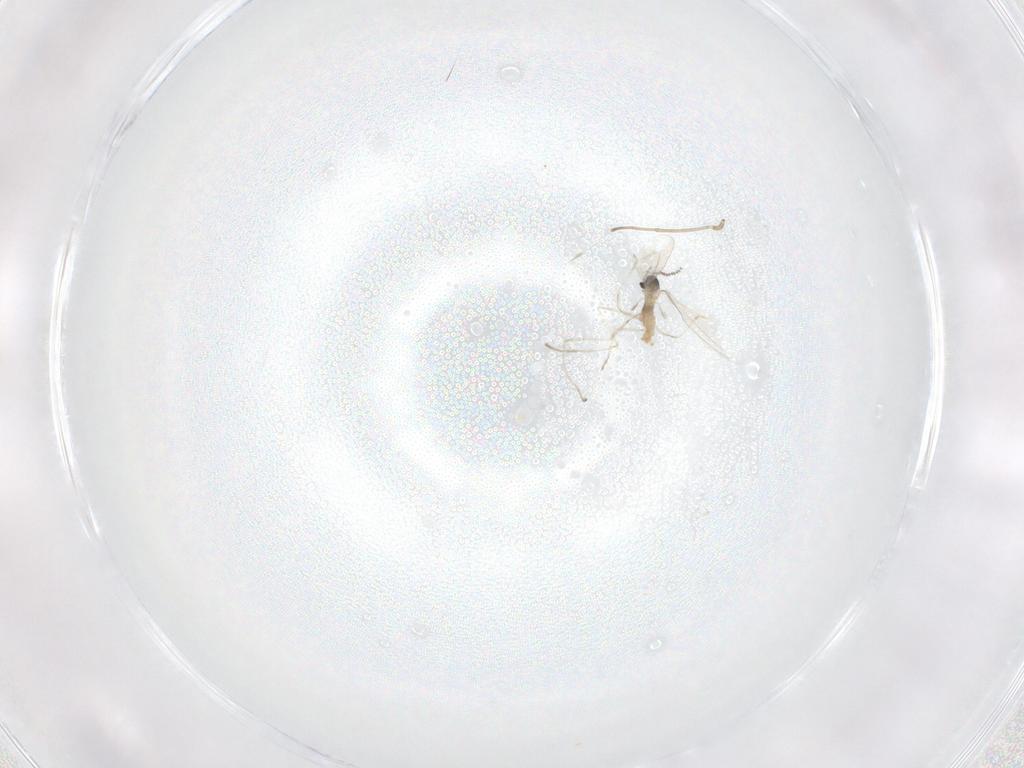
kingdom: Animalia
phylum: Arthropoda
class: Insecta
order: Diptera
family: Cecidomyiidae
